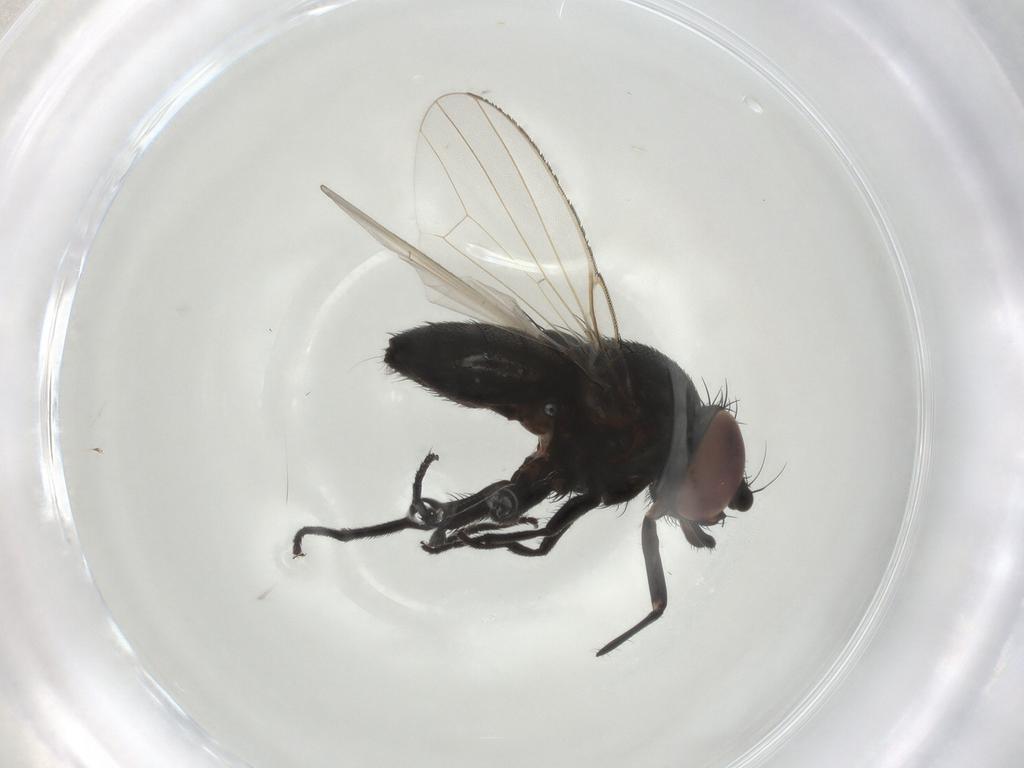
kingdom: Animalia
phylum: Arthropoda
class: Insecta
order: Diptera
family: Milichiidae
